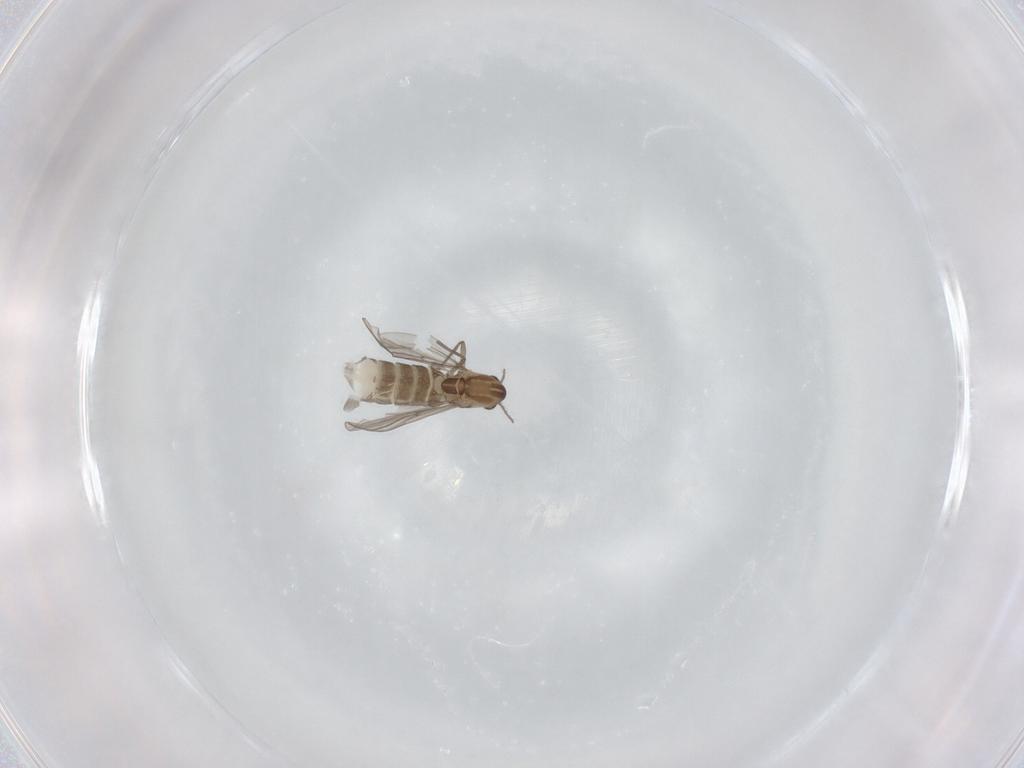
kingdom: Animalia
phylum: Arthropoda
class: Insecta
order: Diptera
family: Chironomidae
